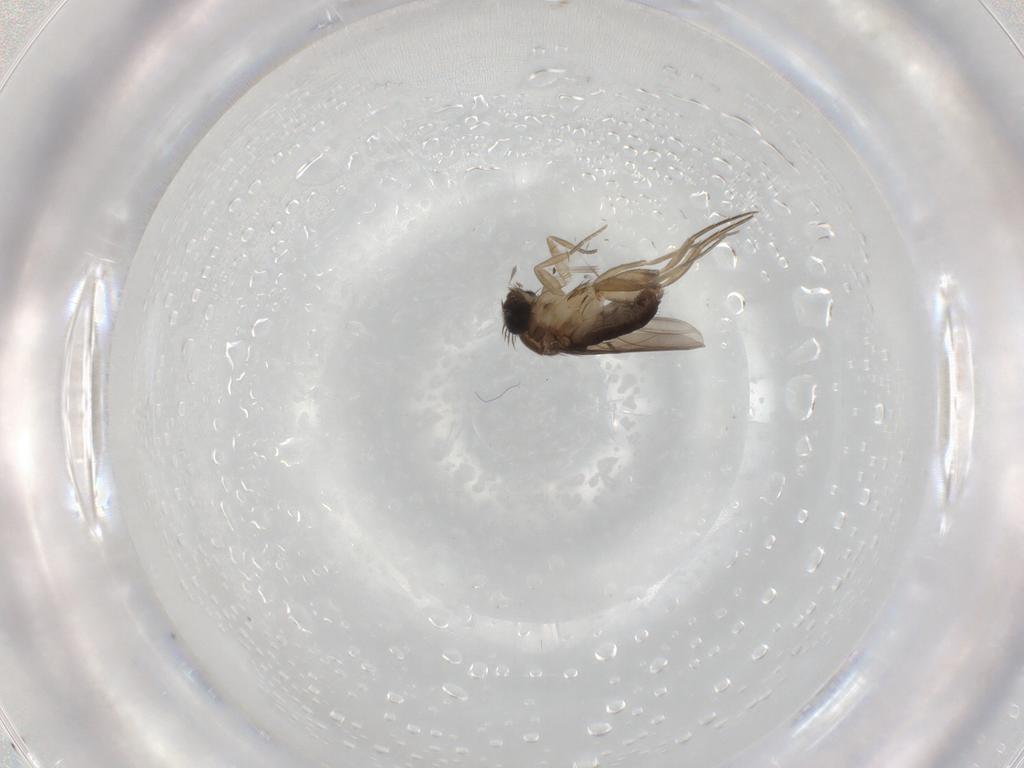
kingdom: Animalia
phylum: Arthropoda
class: Insecta
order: Diptera
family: Phoridae
